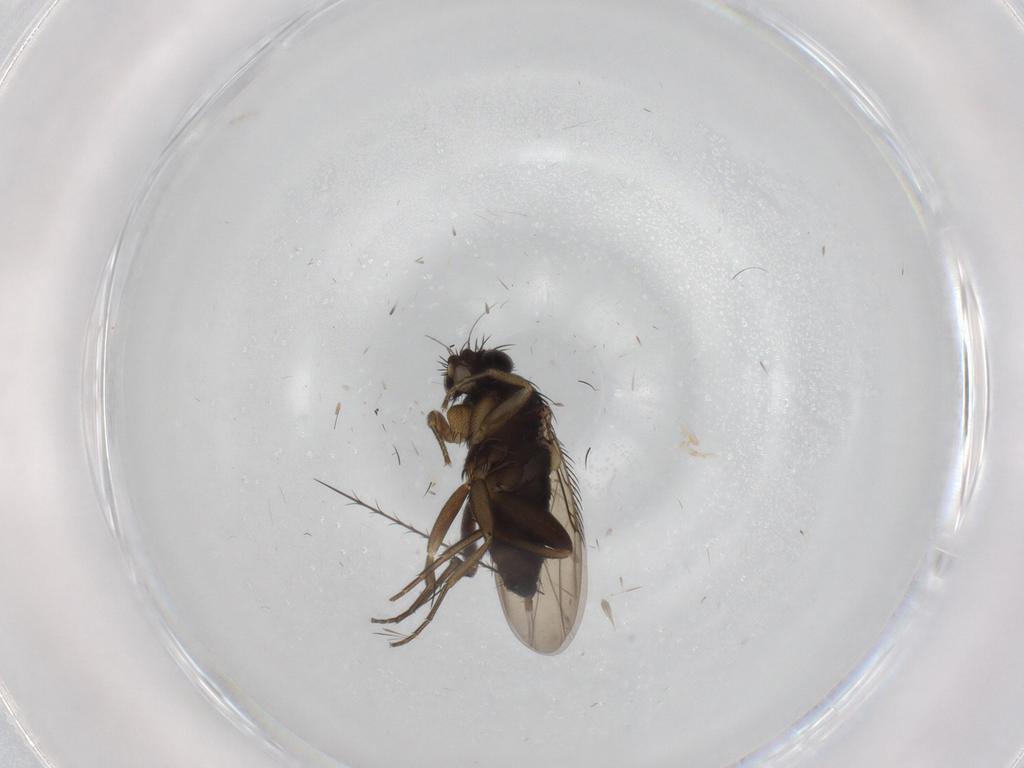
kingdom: Animalia
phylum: Arthropoda
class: Insecta
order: Diptera
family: Phoridae
